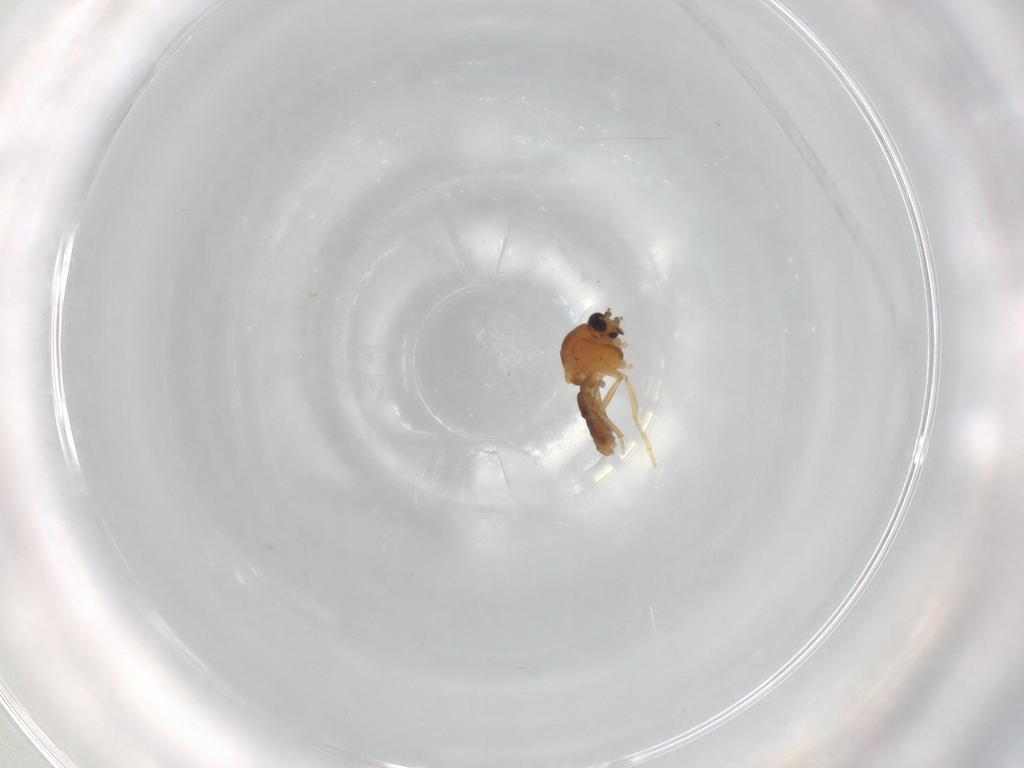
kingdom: Animalia
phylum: Arthropoda
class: Insecta
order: Diptera
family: Ceratopogonidae
